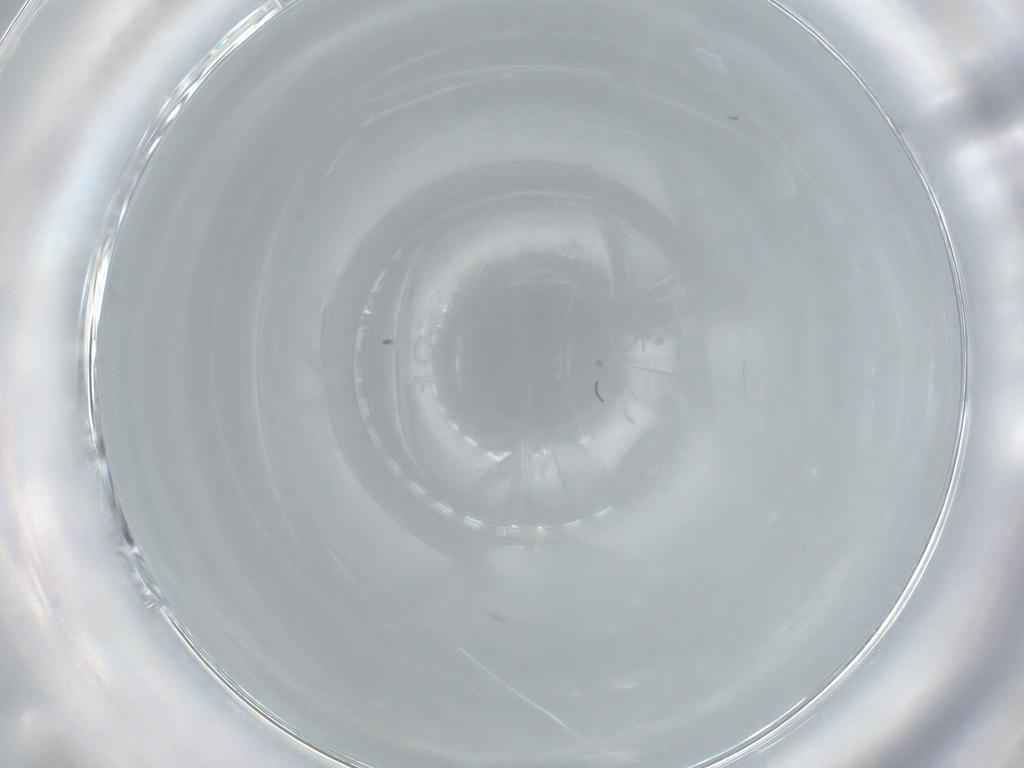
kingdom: Animalia
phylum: Arthropoda
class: Insecta
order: Diptera
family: Cecidomyiidae
